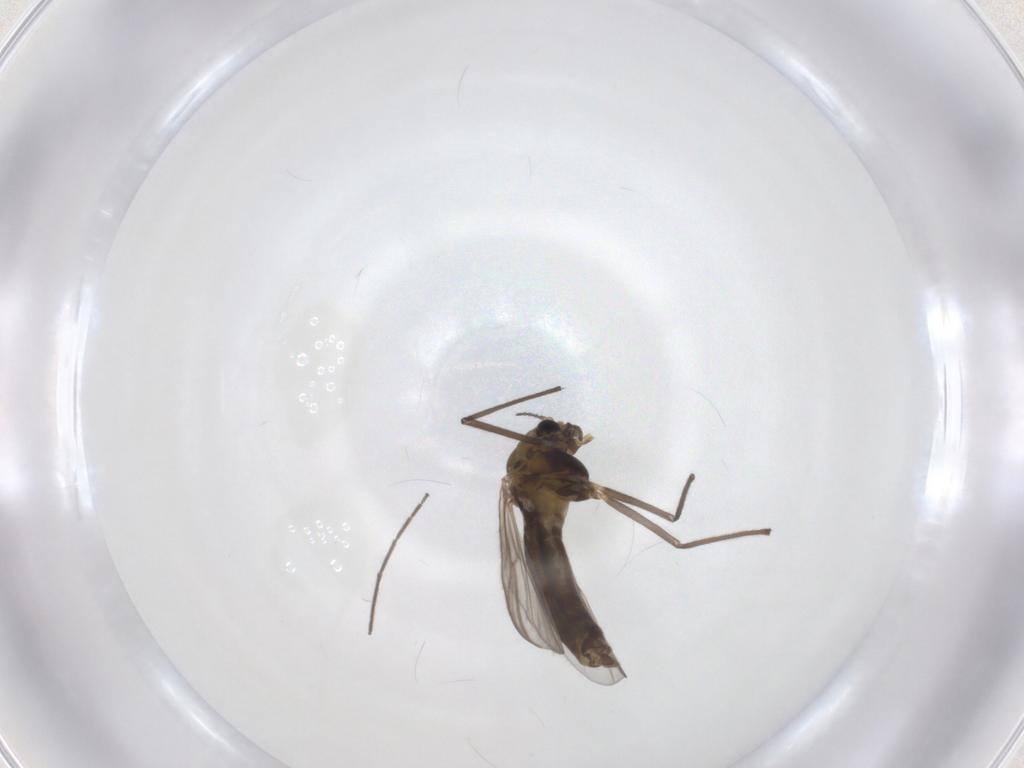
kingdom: Animalia
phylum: Arthropoda
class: Insecta
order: Diptera
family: Chironomidae
